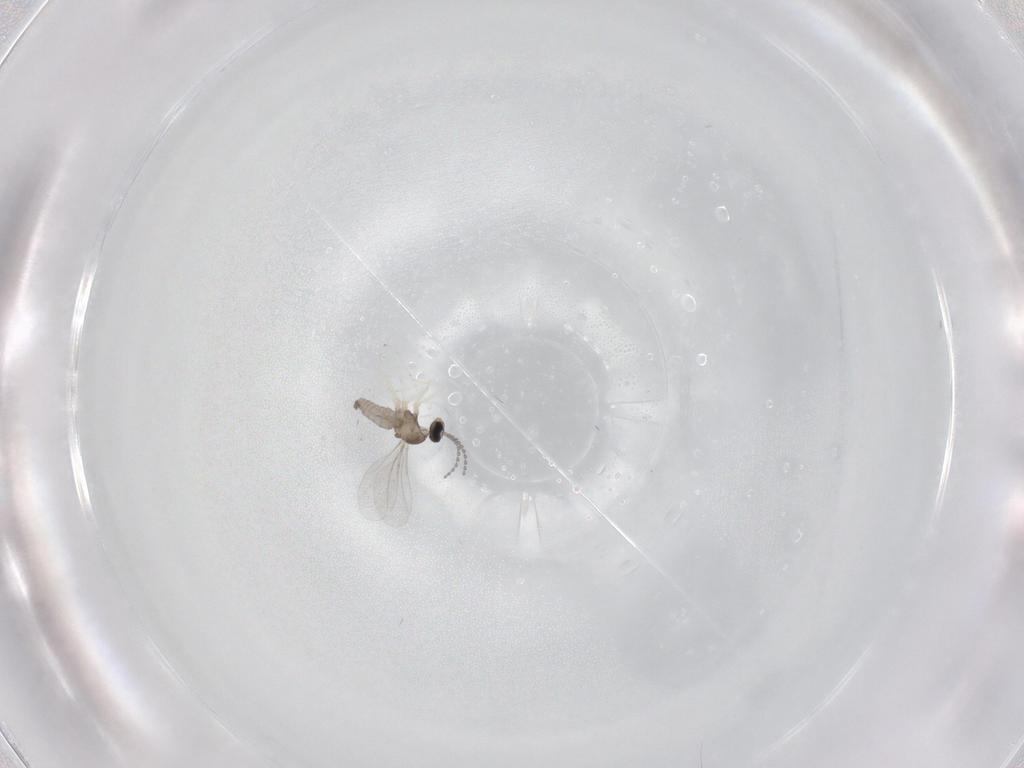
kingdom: Animalia
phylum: Arthropoda
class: Insecta
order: Diptera
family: Cecidomyiidae
